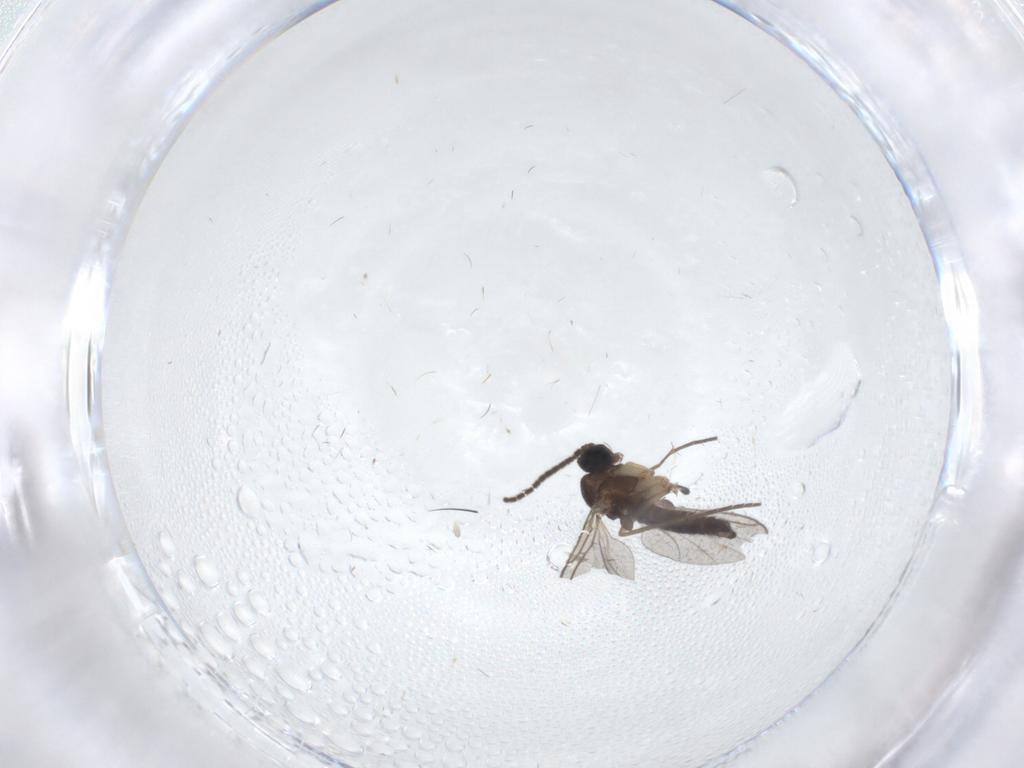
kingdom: Animalia
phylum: Arthropoda
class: Insecta
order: Diptera
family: Sciaridae
